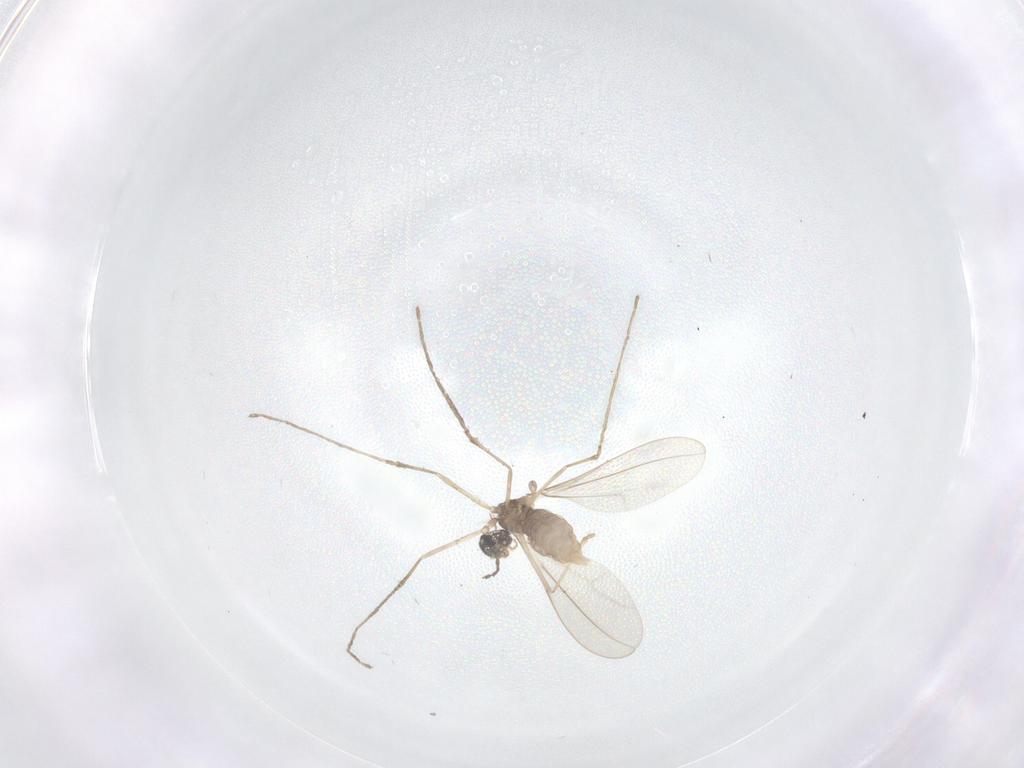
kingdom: Animalia
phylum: Arthropoda
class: Insecta
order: Diptera
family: Cecidomyiidae
